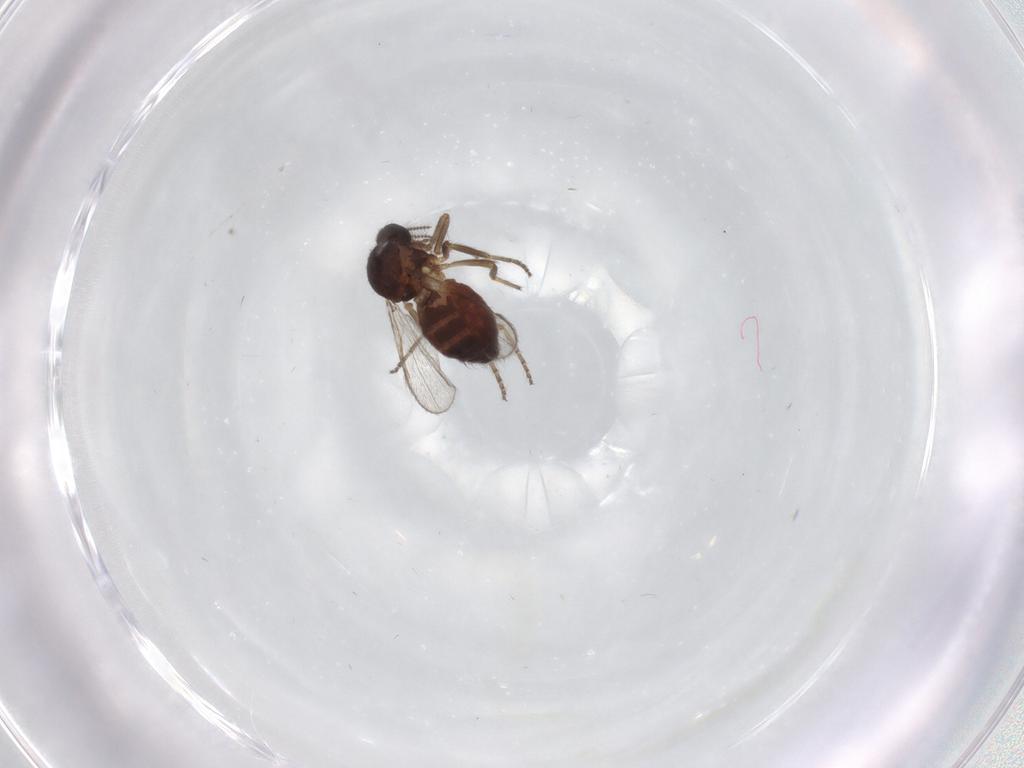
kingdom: Animalia
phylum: Arthropoda
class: Insecta
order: Diptera
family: Ceratopogonidae
